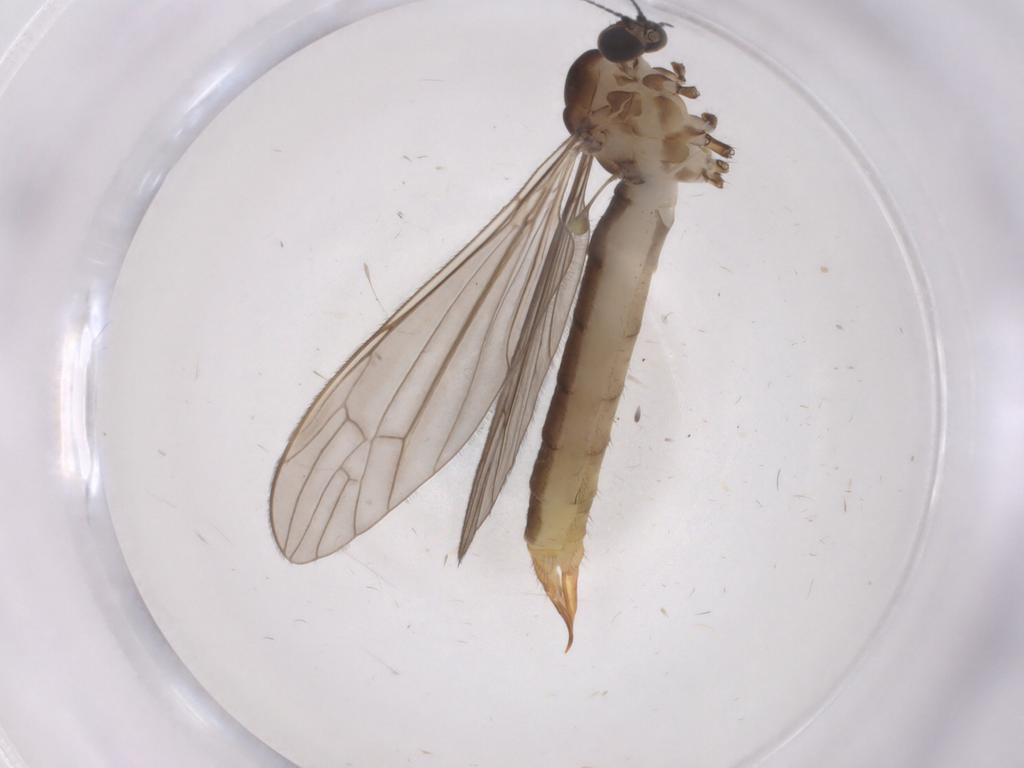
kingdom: Animalia
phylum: Arthropoda
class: Insecta
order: Diptera
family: Limoniidae
